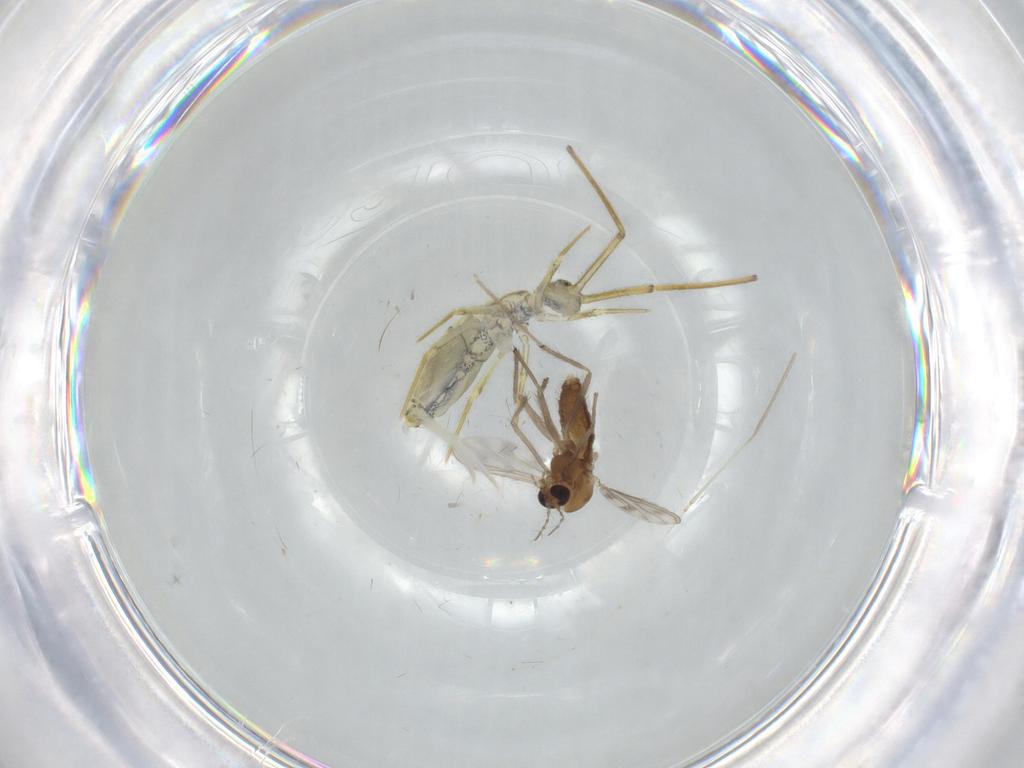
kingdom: Animalia
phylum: Arthropoda
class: Insecta
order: Diptera
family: Chironomidae
